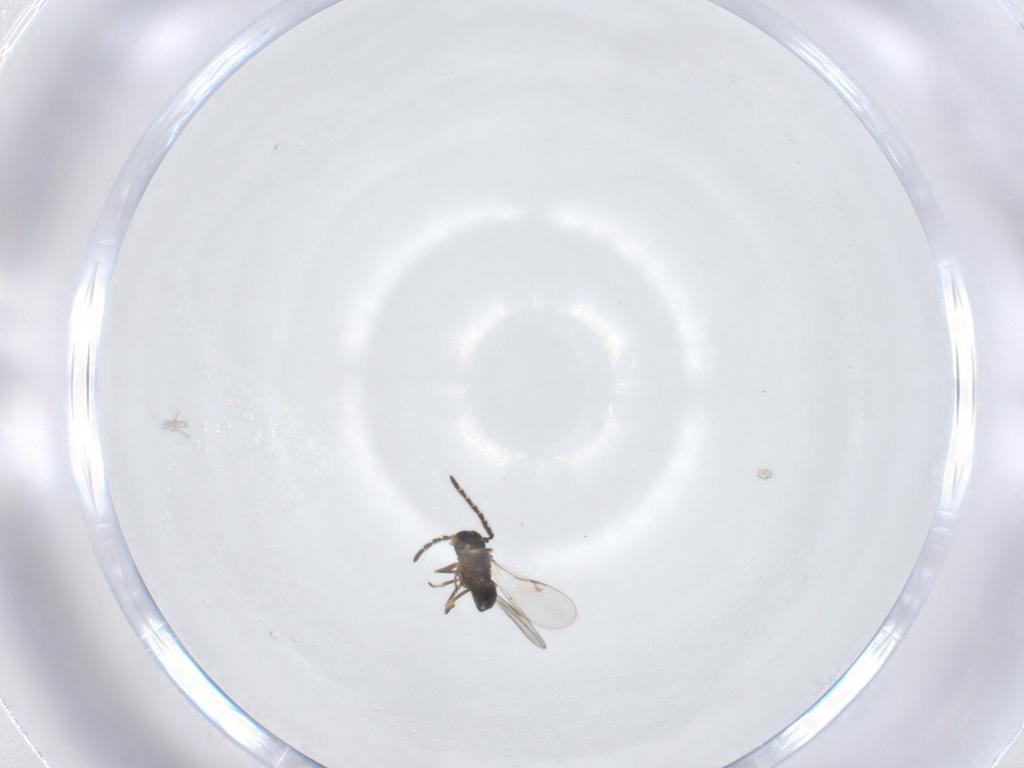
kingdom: Animalia
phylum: Arthropoda
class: Insecta
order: Hymenoptera
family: Encyrtidae
